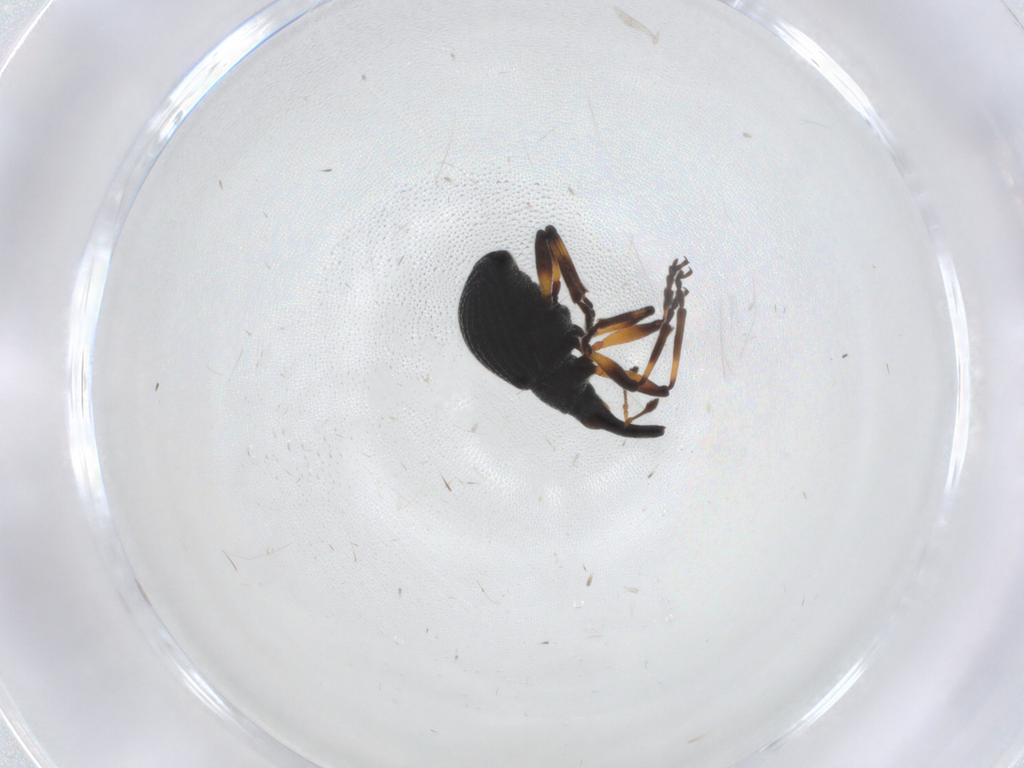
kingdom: Animalia
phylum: Arthropoda
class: Insecta
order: Coleoptera
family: Brentidae
